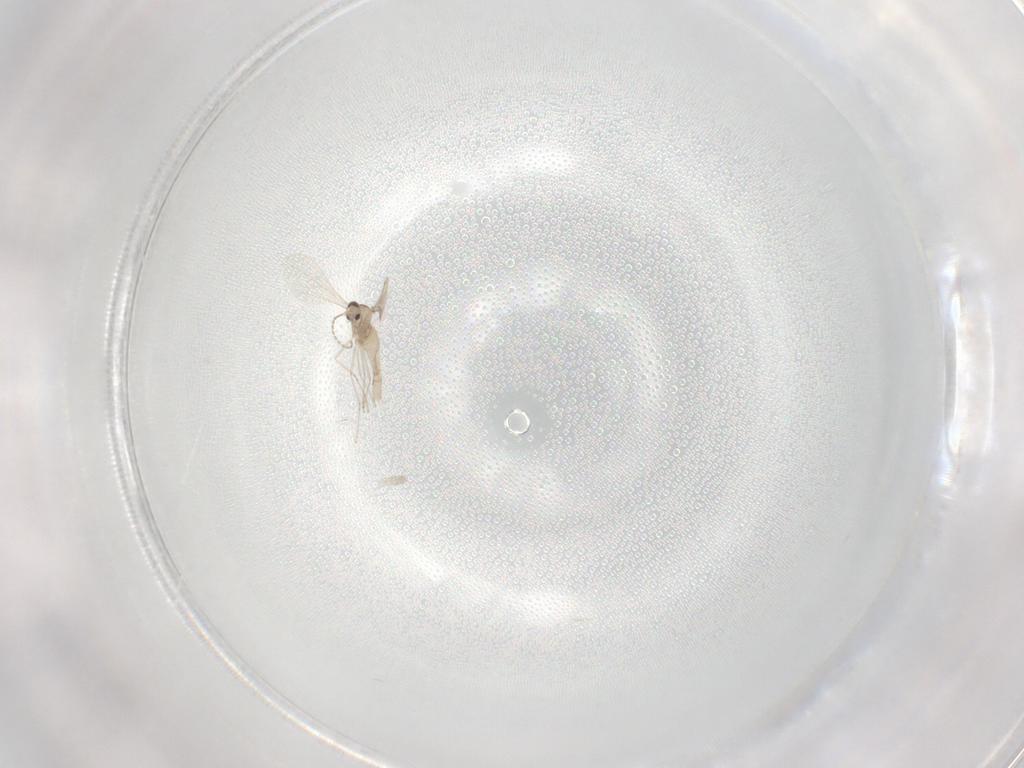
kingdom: Animalia
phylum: Arthropoda
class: Insecta
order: Diptera
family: Cecidomyiidae
